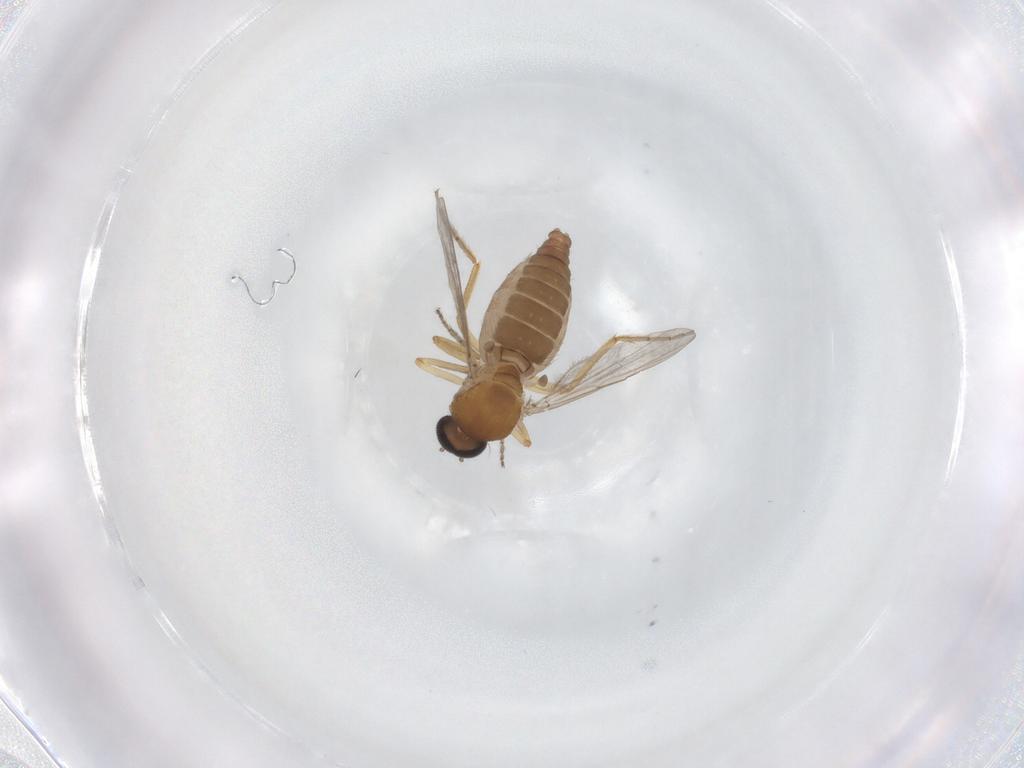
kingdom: Animalia
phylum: Arthropoda
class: Insecta
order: Diptera
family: Ceratopogonidae
